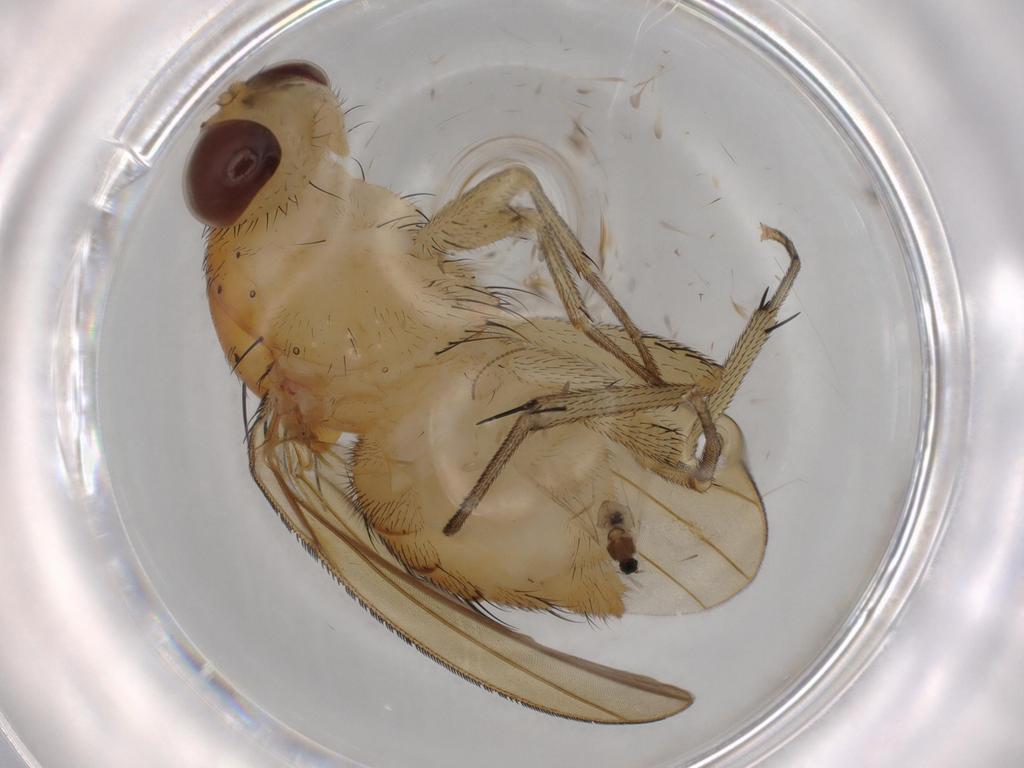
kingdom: Animalia
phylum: Arthropoda
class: Insecta
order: Diptera
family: Sciaridae
